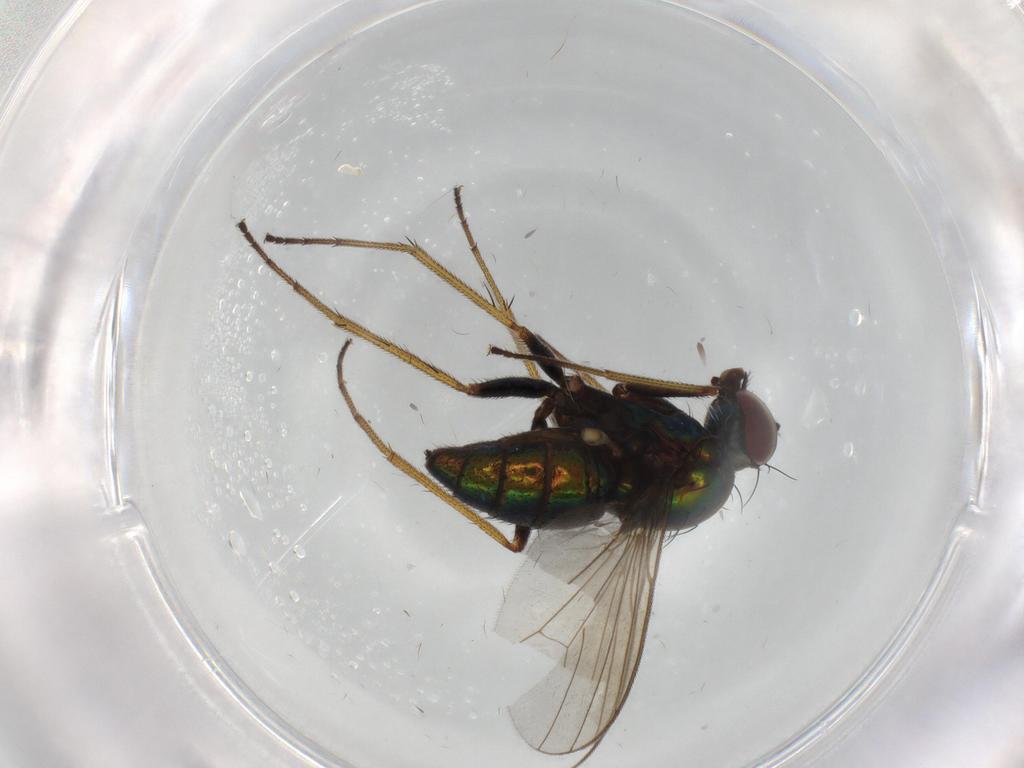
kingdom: Animalia
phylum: Arthropoda
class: Insecta
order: Diptera
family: Dolichopodidae
